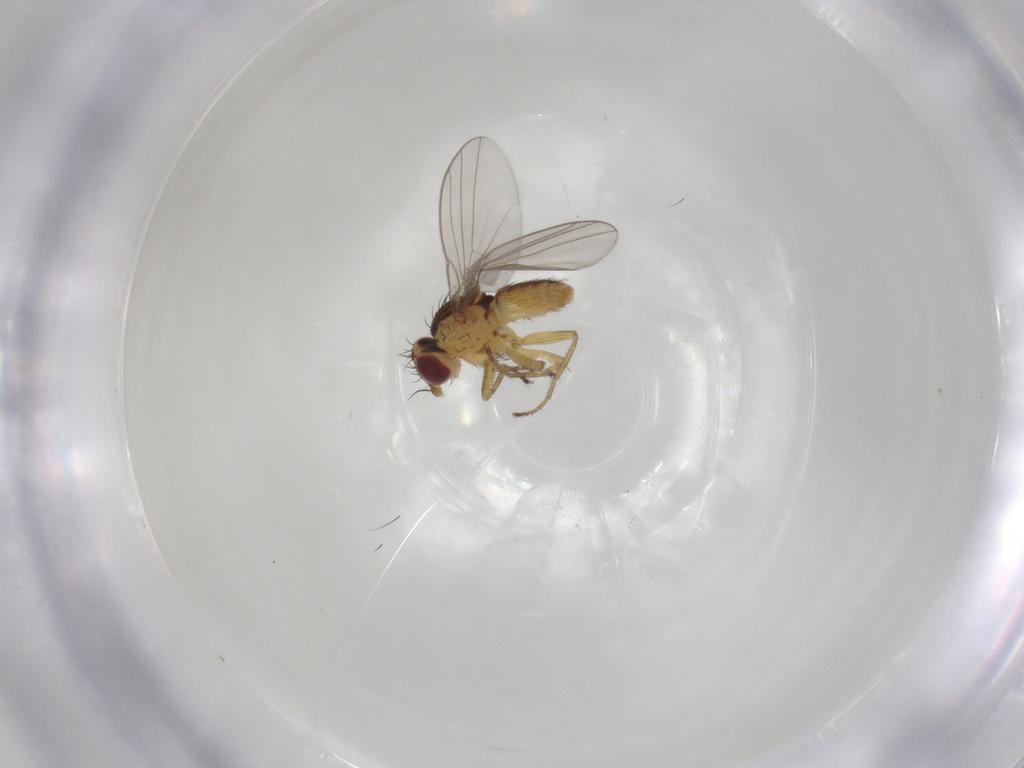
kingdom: Animalia
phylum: Arthropoda
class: Insecta
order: Diptera
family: Agromyzidae
